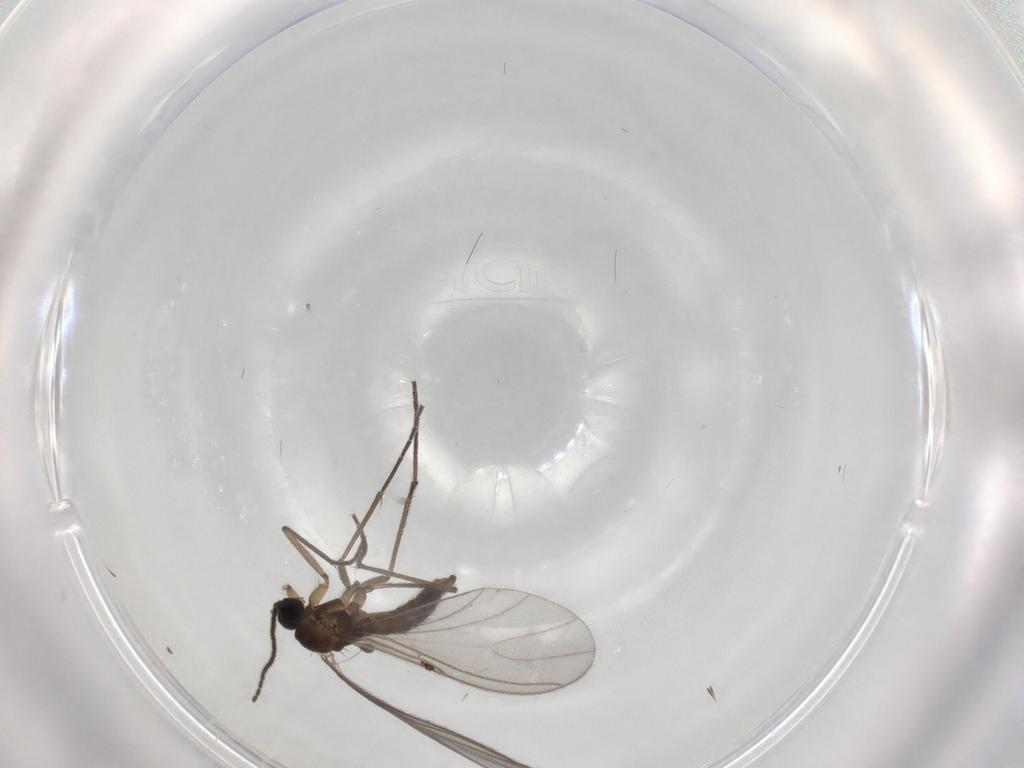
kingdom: Animalia
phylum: Arthropoda
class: Insecta
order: Diptera
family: Sciaridae
